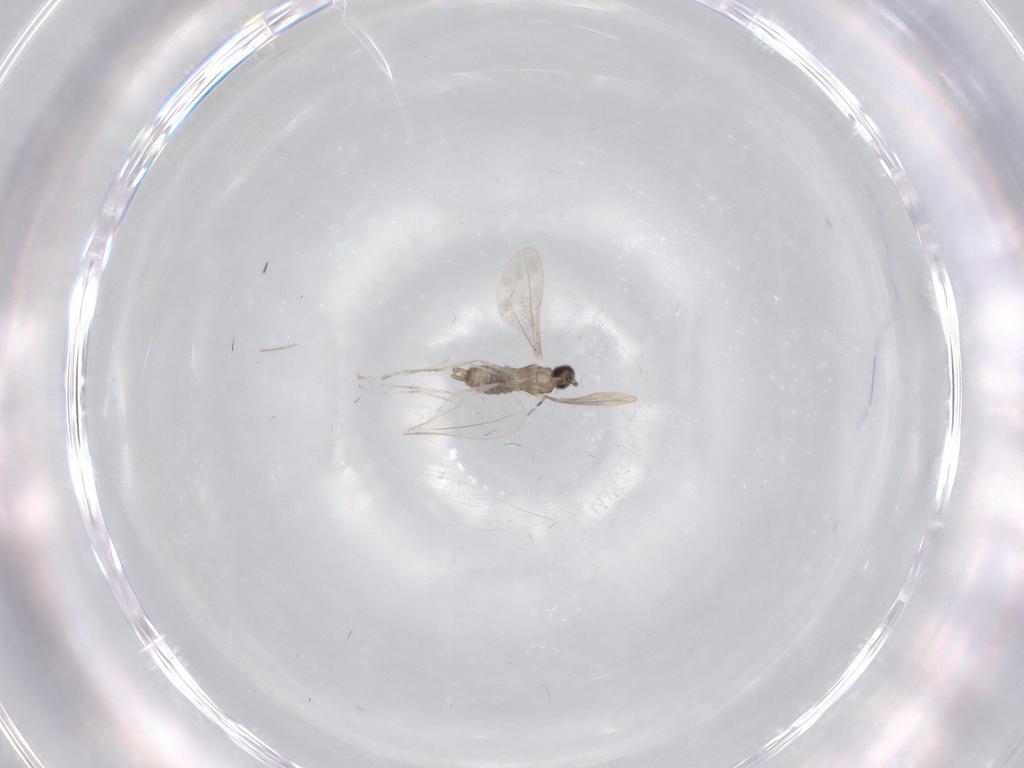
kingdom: Animalia
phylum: Arthropoda
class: Insecta
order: Diptera
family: Cecidomyiidae
